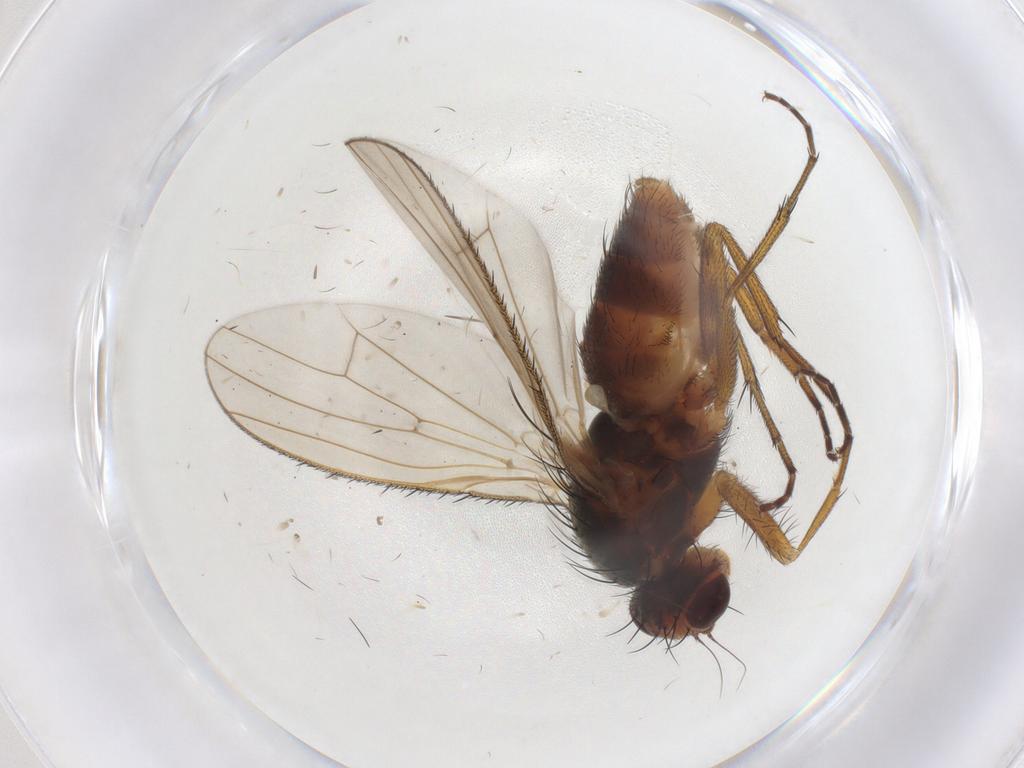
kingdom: Animalia
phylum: Arthropoda
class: Insecta
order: Diptera
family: Heleomyzidae
